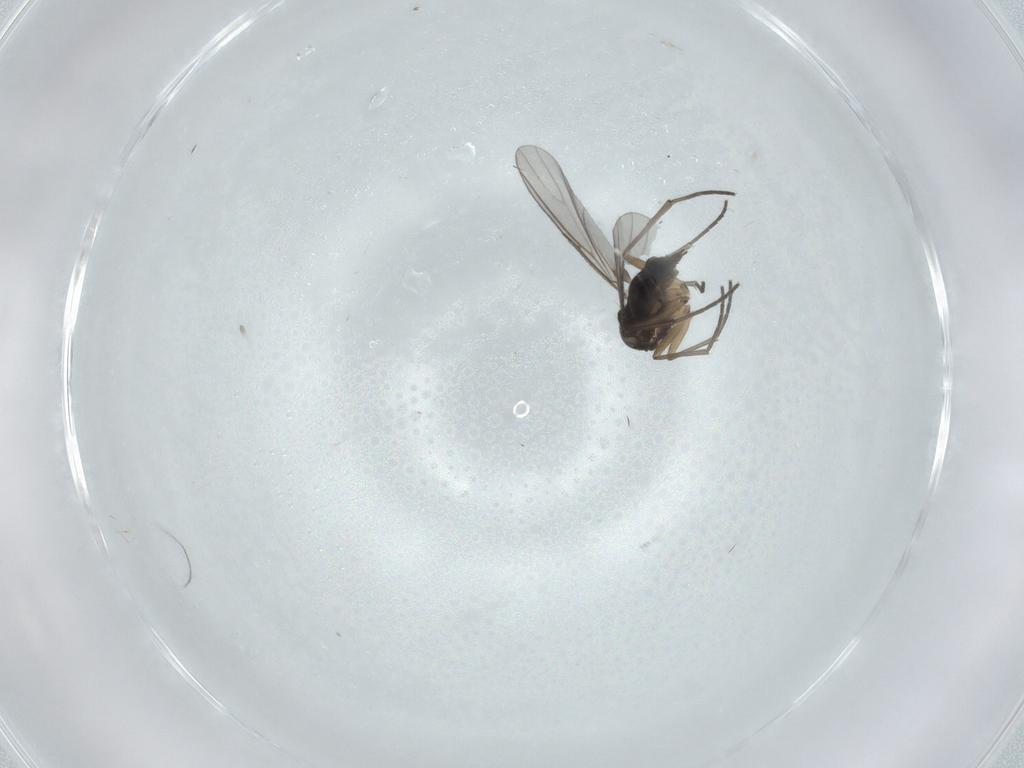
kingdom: Animalia
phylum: Arthropoda
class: Insecta
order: Diptera
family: Sciaridae
